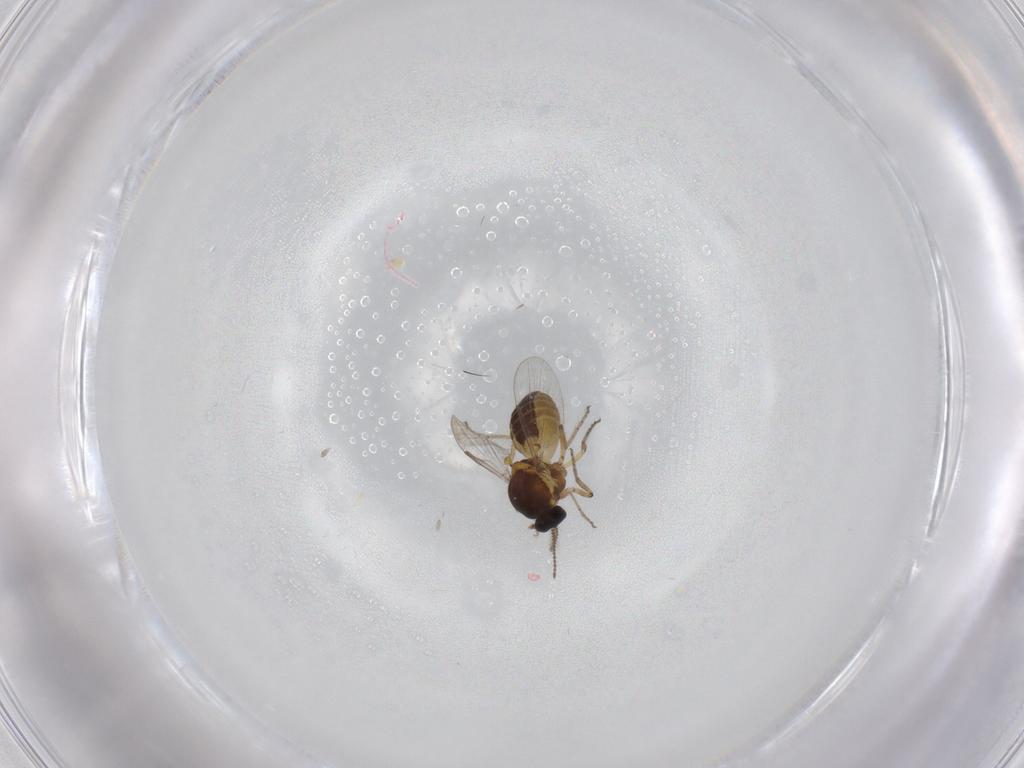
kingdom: Animalia
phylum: Arthropoda
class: Insecta
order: Diptera
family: Ceratopogonidae
